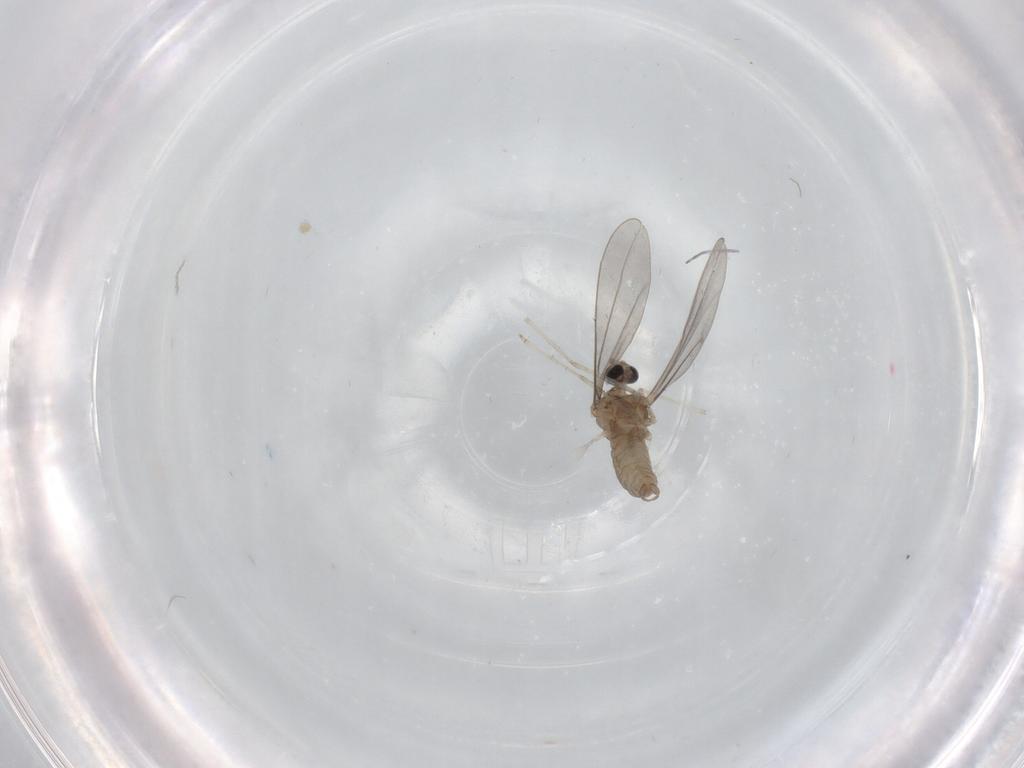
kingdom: Animalia
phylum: Arthropoda
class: Insecta
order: Diptera
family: Cecidomyiidae
